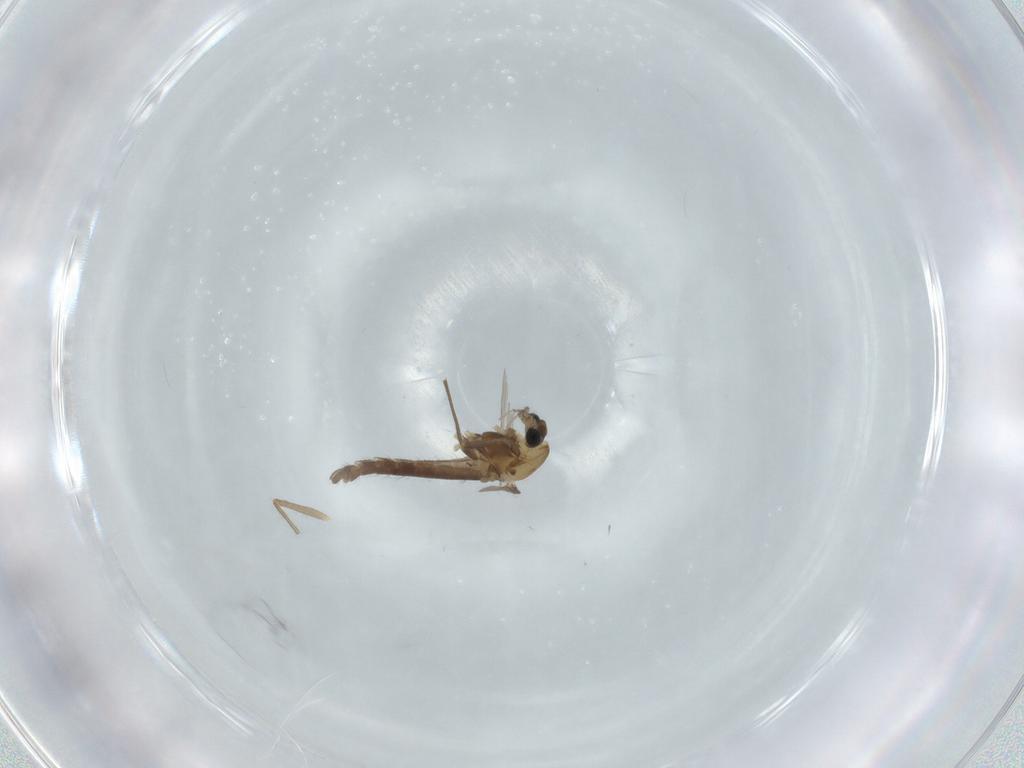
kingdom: Animalia
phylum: Arthropoda
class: Insecta
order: Diptera
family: Chironomidae
